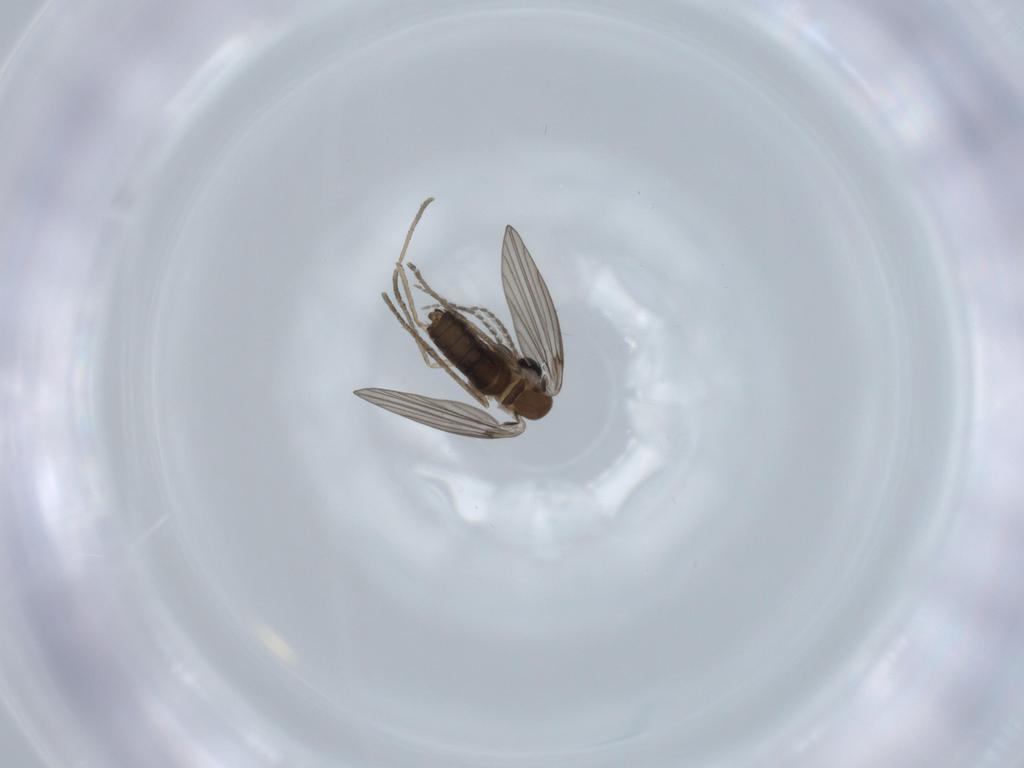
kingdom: Animalia
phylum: Arthropoda
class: Insecta
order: Diptera
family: Psychodidae
